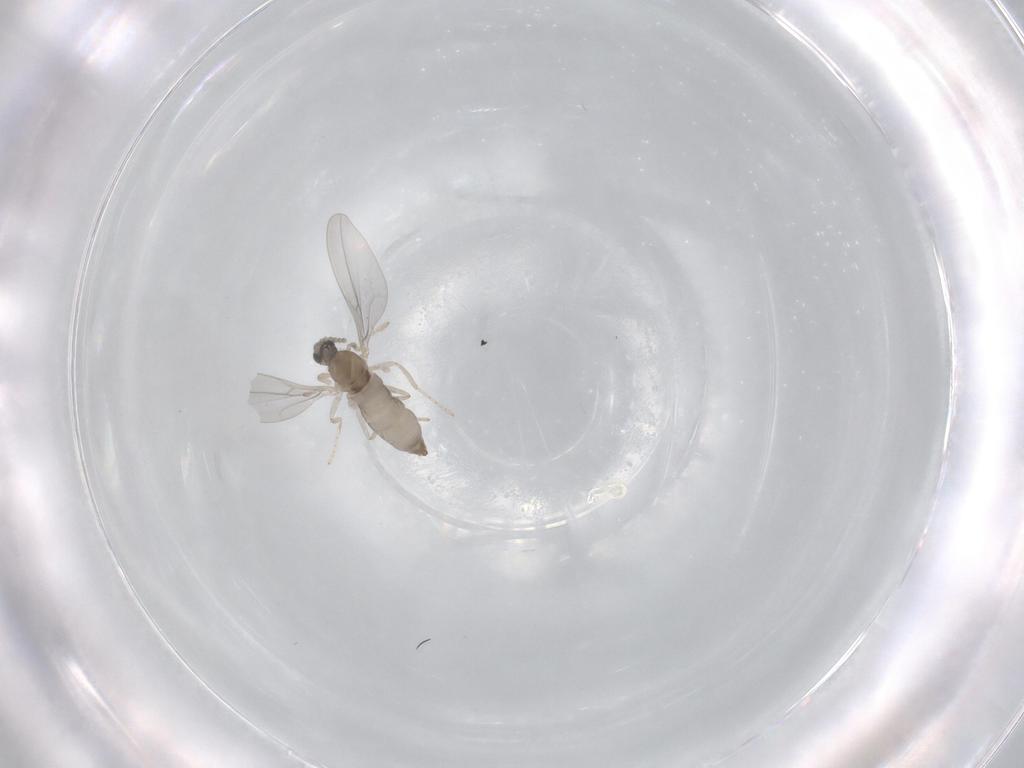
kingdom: Animalia
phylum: Arthropoda
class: Insecta
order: Diptera
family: Cecidomyiidae
